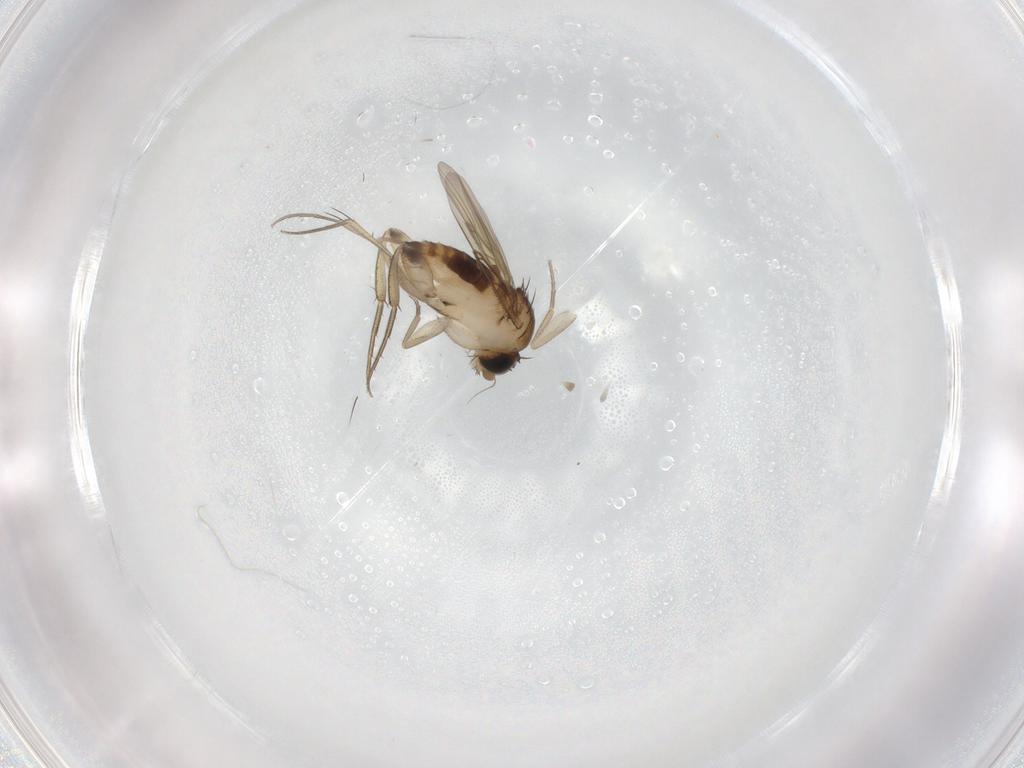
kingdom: Animalia
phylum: Arthropoda
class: Insecta
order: Diptera
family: Phoridae
